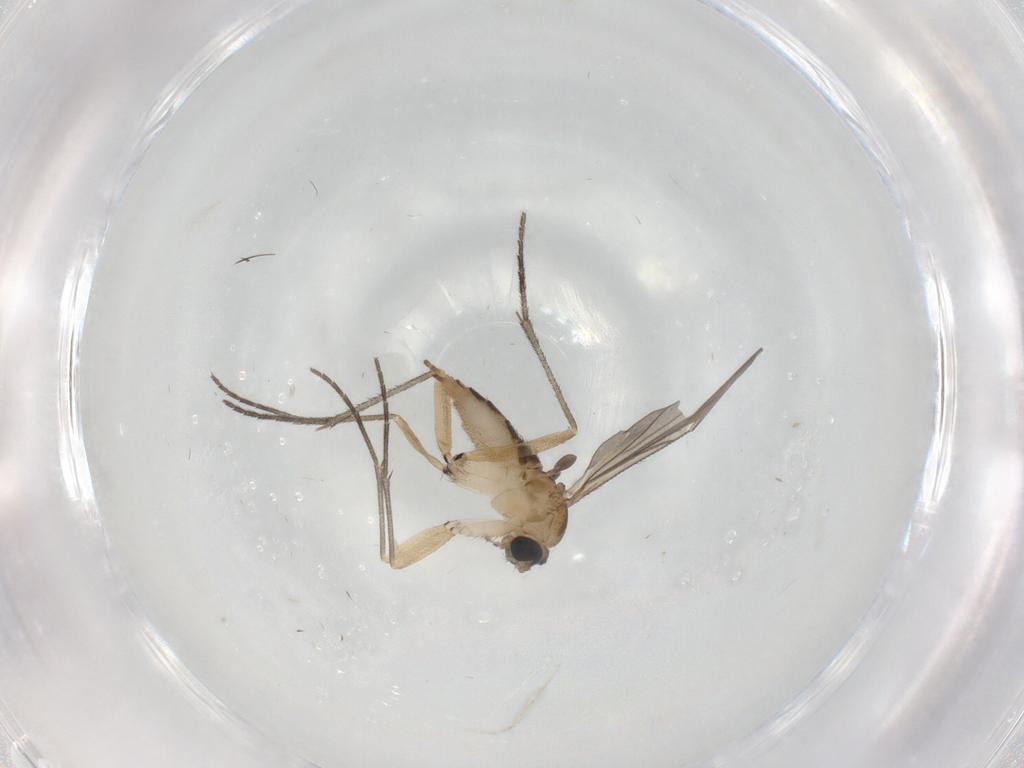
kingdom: Animalia
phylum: Arthropoda
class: Insecta
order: Diptera
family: Sciaridae
